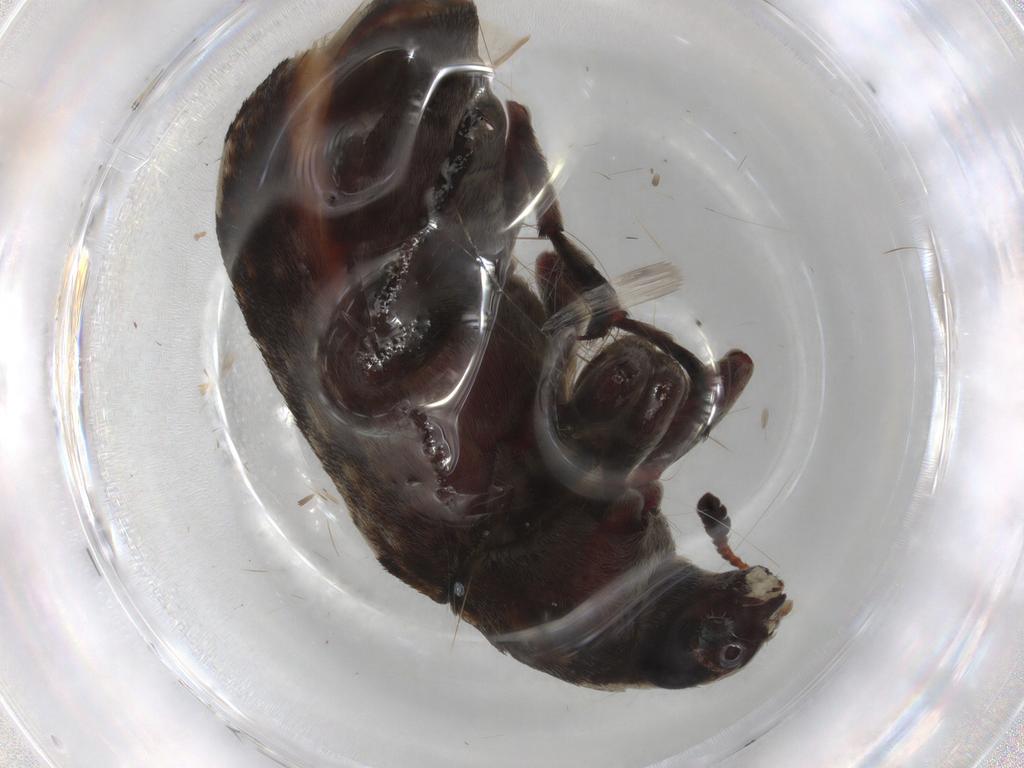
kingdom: Animalia
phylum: Arthropoda
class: Insecta
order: Coleoptera
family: Anthribidae
